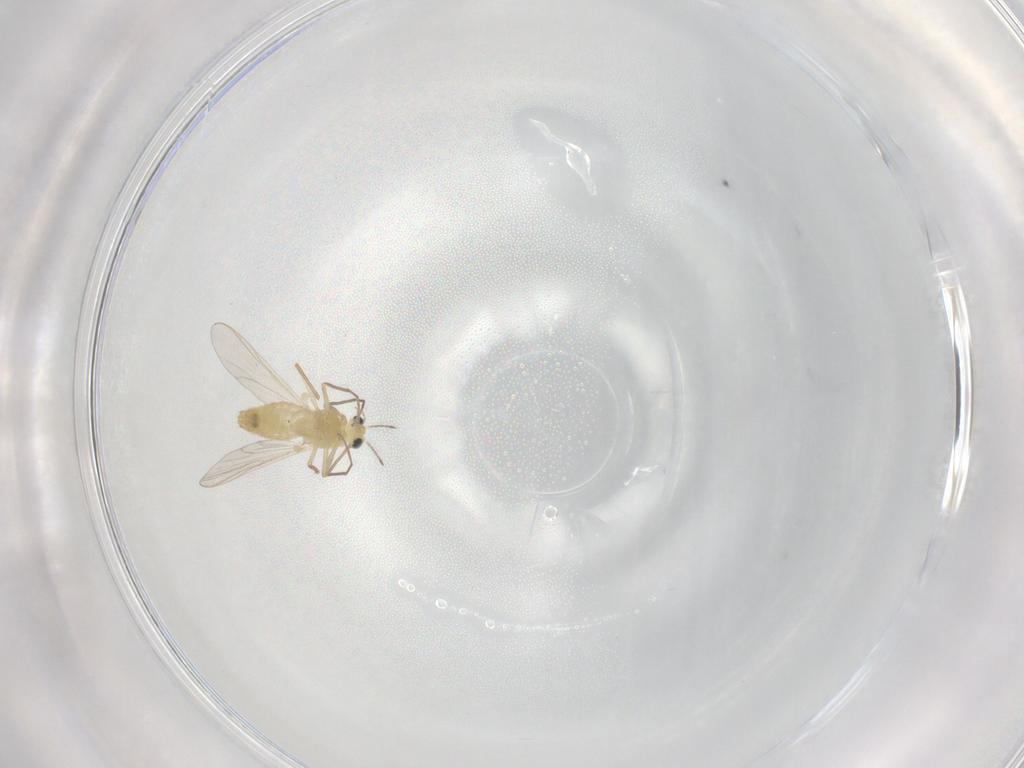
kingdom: Animalia
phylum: Arthropoda
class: Insecta
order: Diptera
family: Chironomidae
